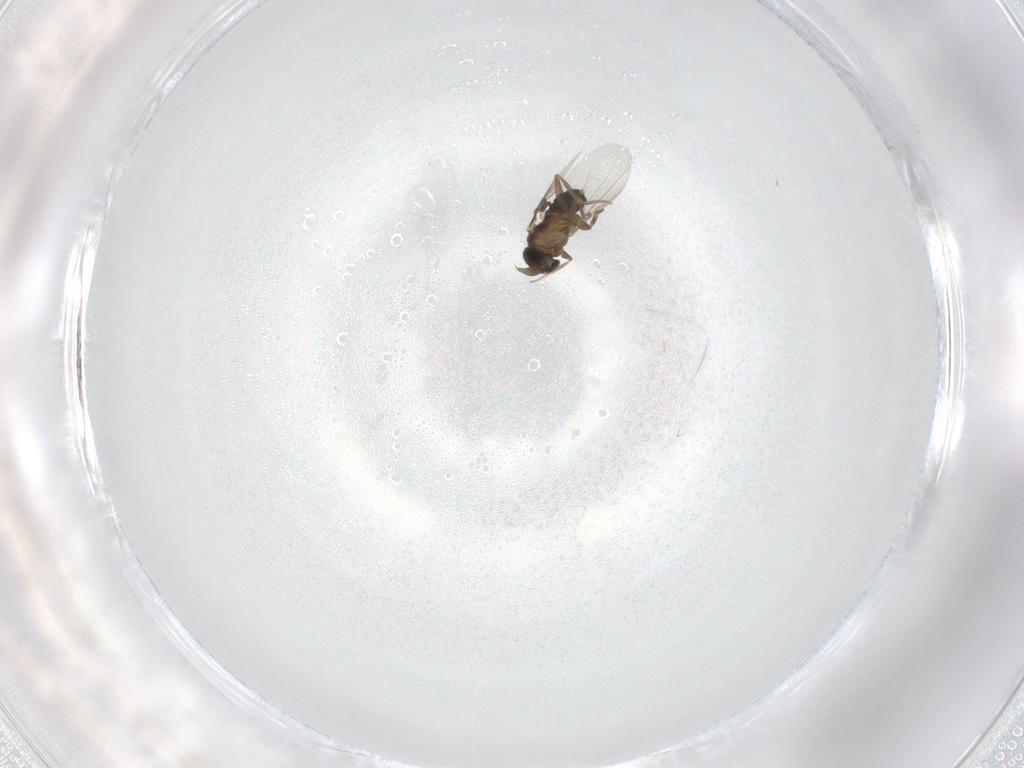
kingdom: Animalia
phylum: Arthropoda
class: Insecta
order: Diptera
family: Phoridae
